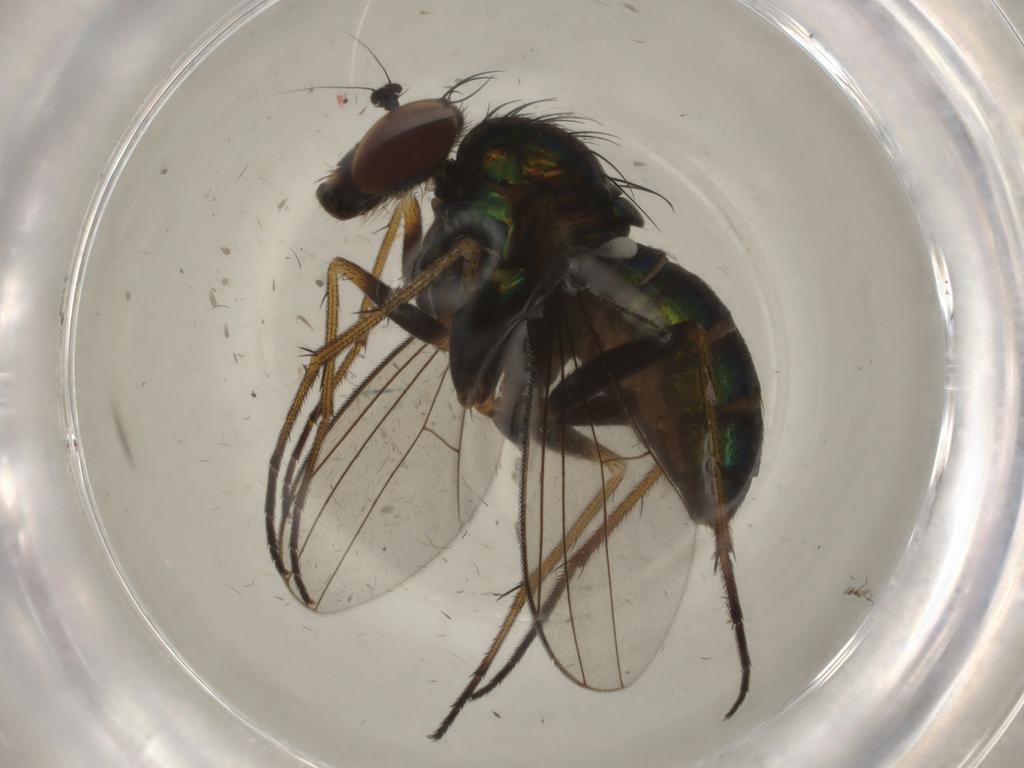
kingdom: Animalia
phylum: Arthropoda
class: Insecta
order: Diptera
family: Dolichopodidae
